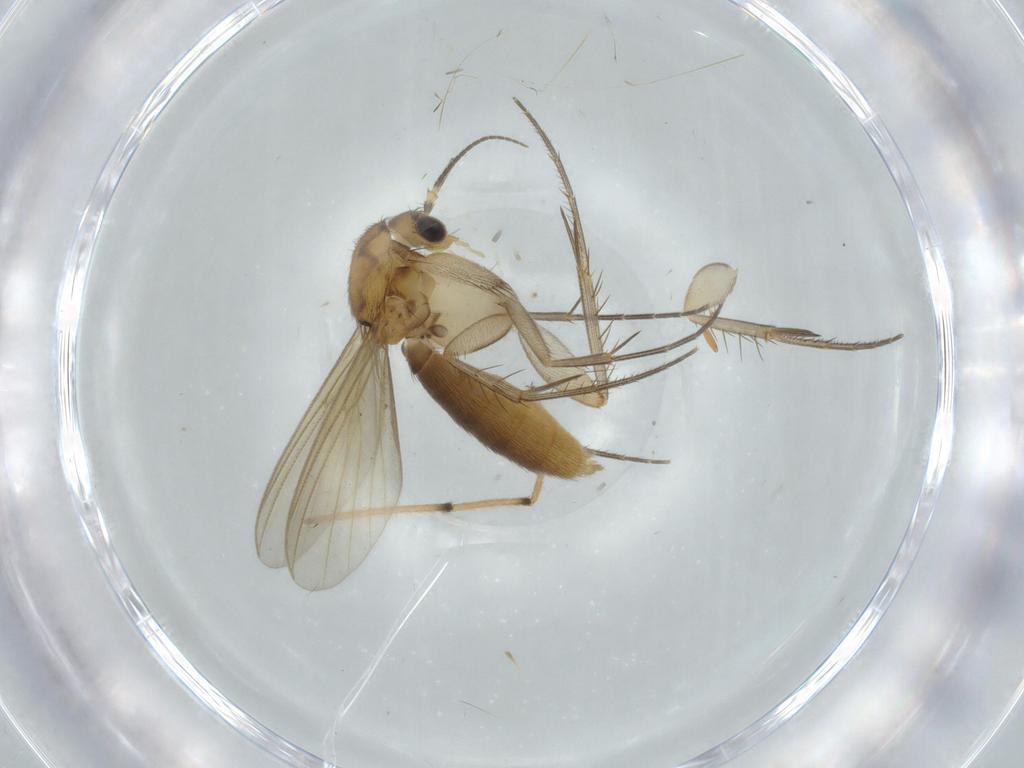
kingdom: Animalia
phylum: Arthropoda
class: Insecta
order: Diptera
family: Mycetophilidae
